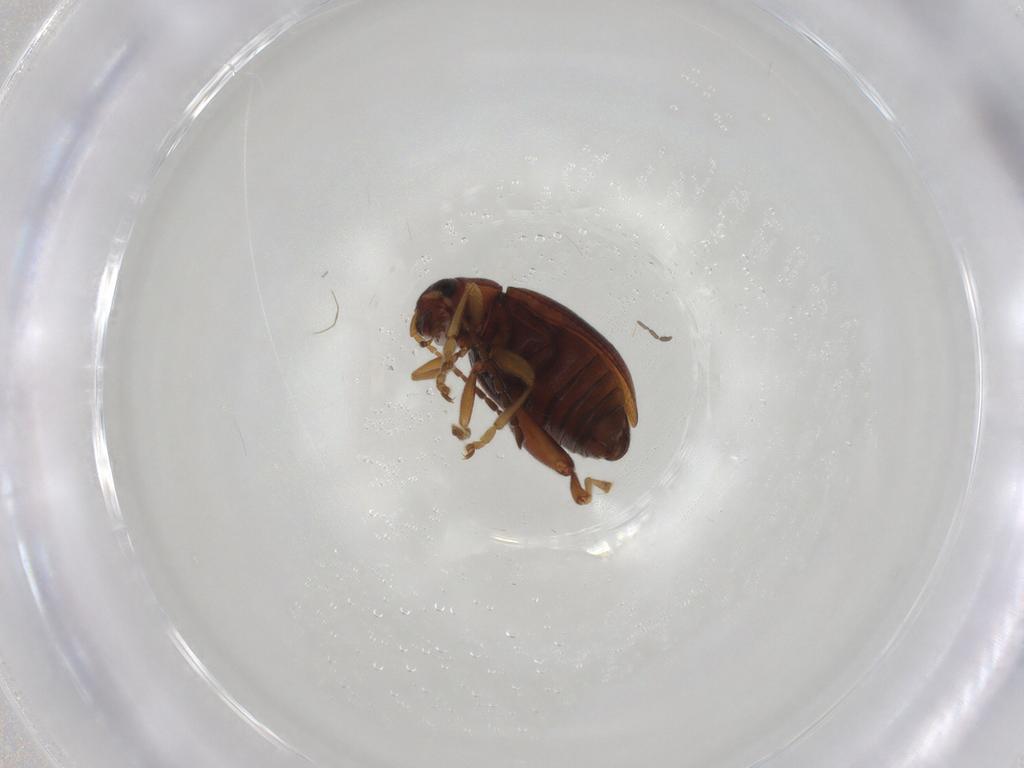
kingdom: Animalia
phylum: Arthropoda
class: Insecta
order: Coleoptera
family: Chrysomelidae
